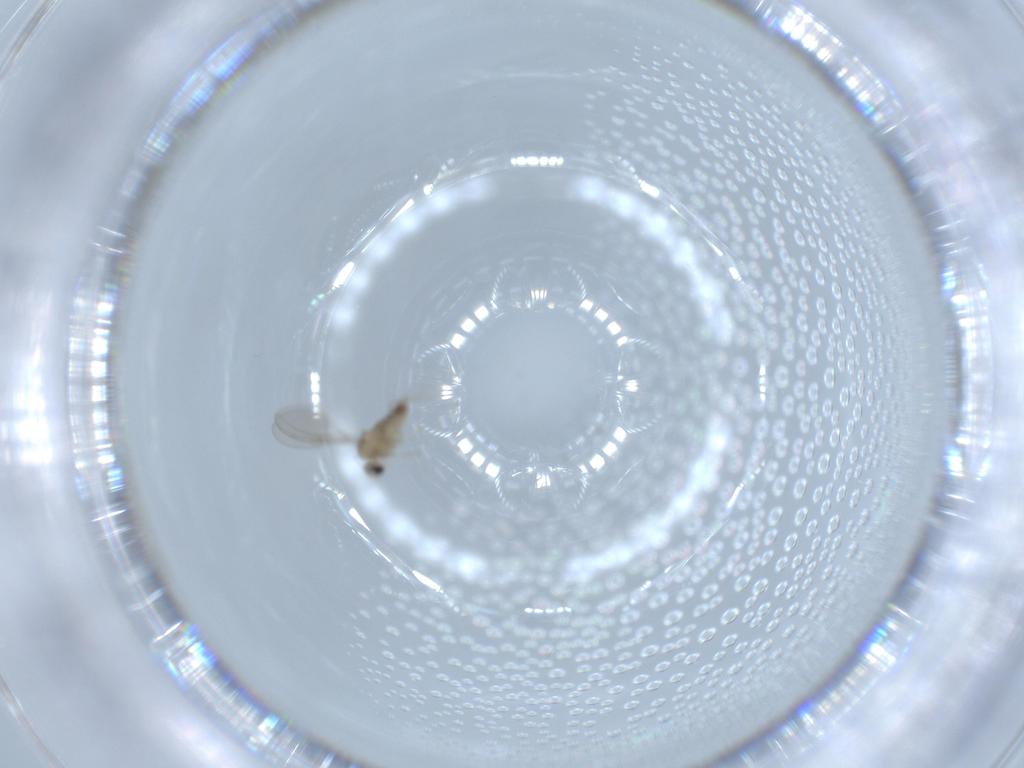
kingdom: Animalia
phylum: Arthropoda
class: Insecta
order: Diptera
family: Cecidomyiidae
